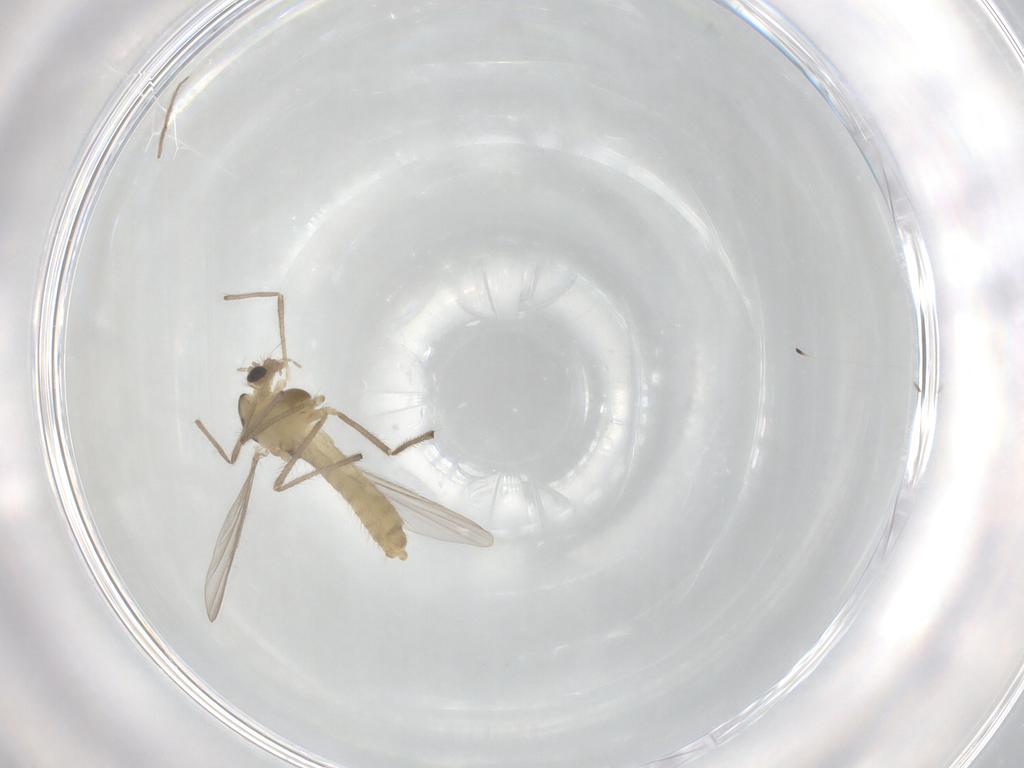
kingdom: Animalia
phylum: Arthropoda
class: Insecta
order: Diptera
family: Chironomidae
